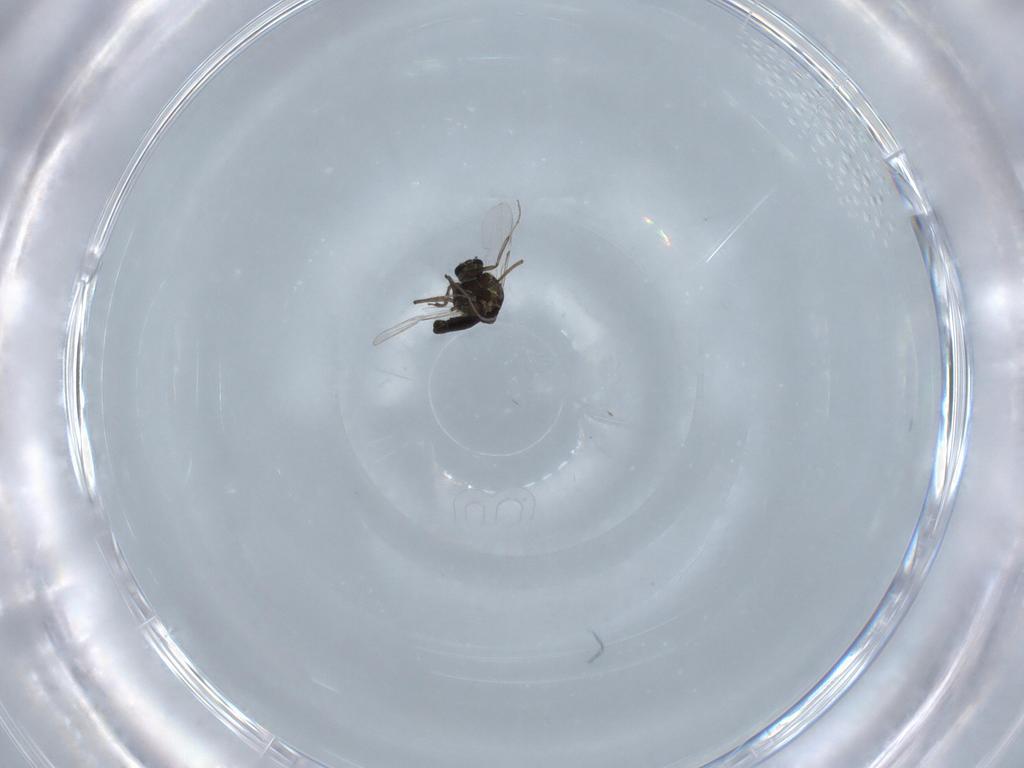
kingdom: Animalia
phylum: Arthropoda
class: Insecta
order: Diptera
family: Ceratopogonidae
